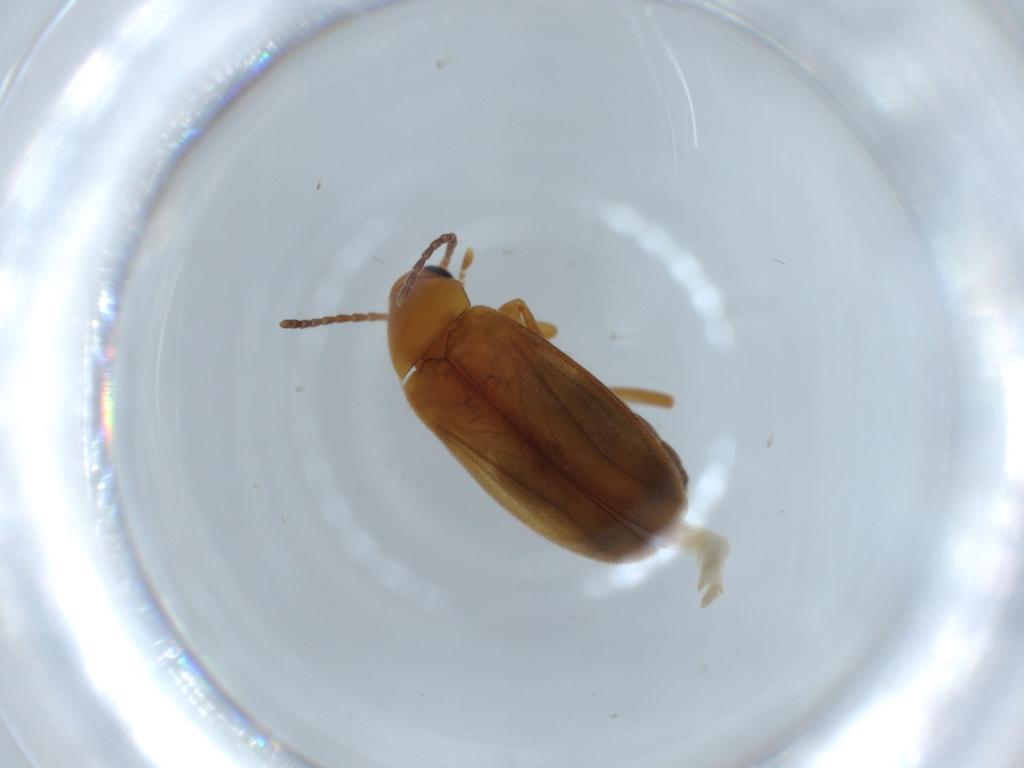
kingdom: Animalia
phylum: Arthropoda
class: Insecta
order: Coleoptera
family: Scraptiidae
